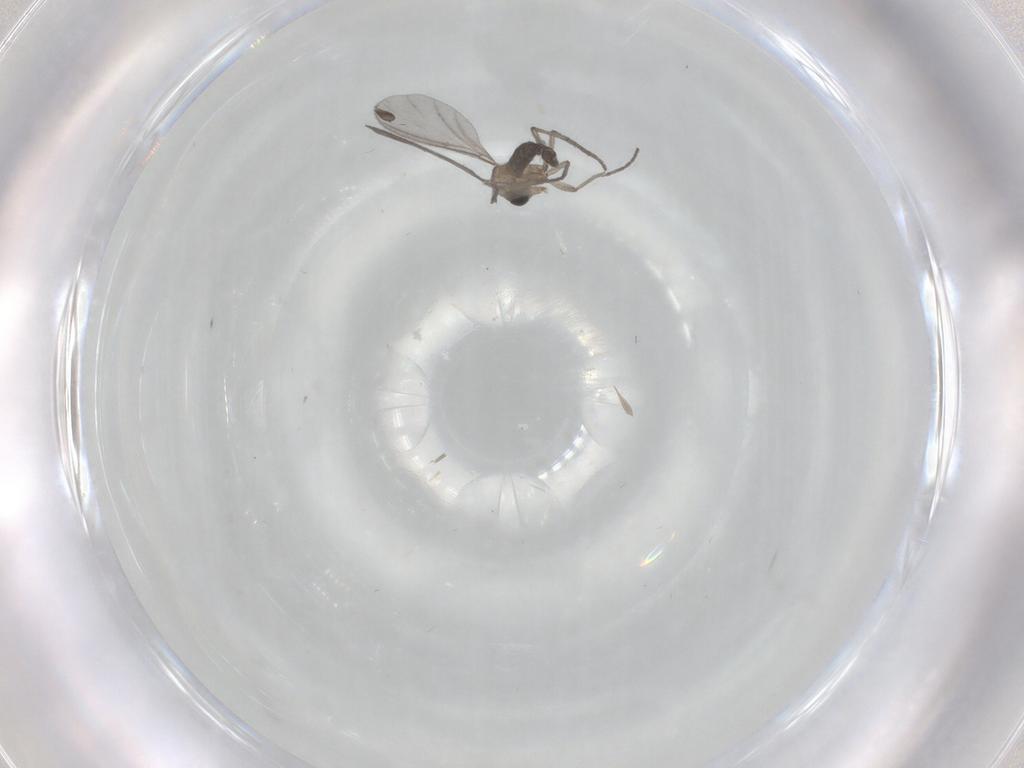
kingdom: Animalia
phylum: Arthropoda
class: Insecta
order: Diptera
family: Sciaridae
